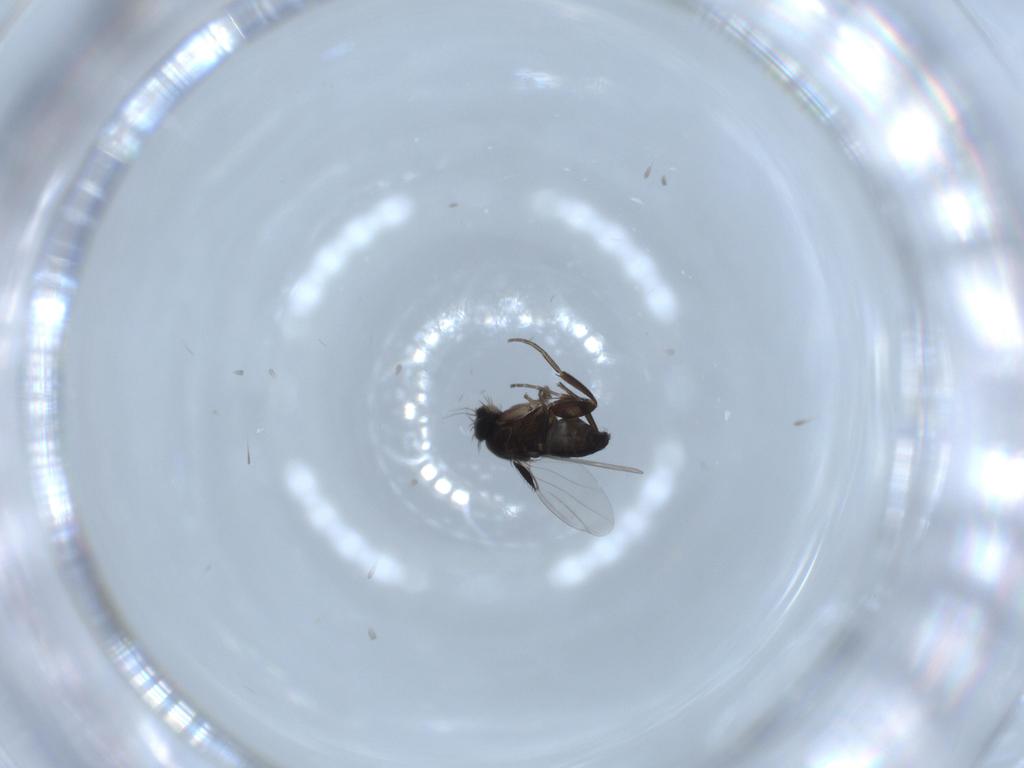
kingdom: Animalia
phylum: Arthropoda
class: Insecta
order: Diptera
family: Phoridae
